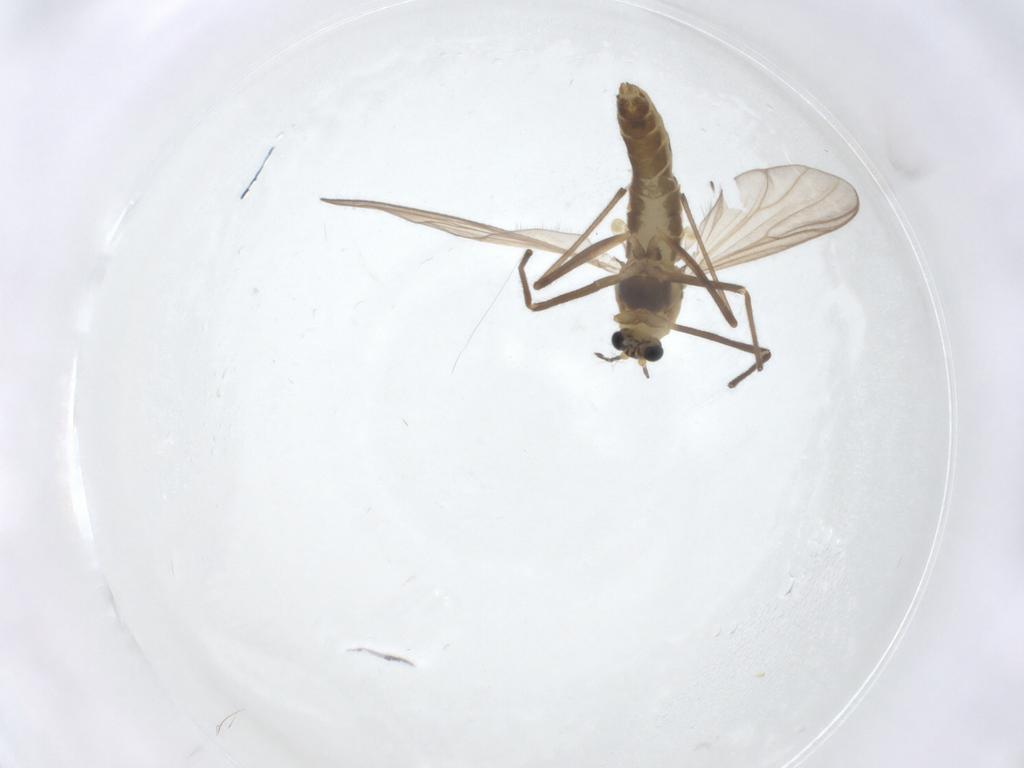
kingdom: Animalia
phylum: Arthropoda
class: Insecta
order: Diptera
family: Chironomidae
